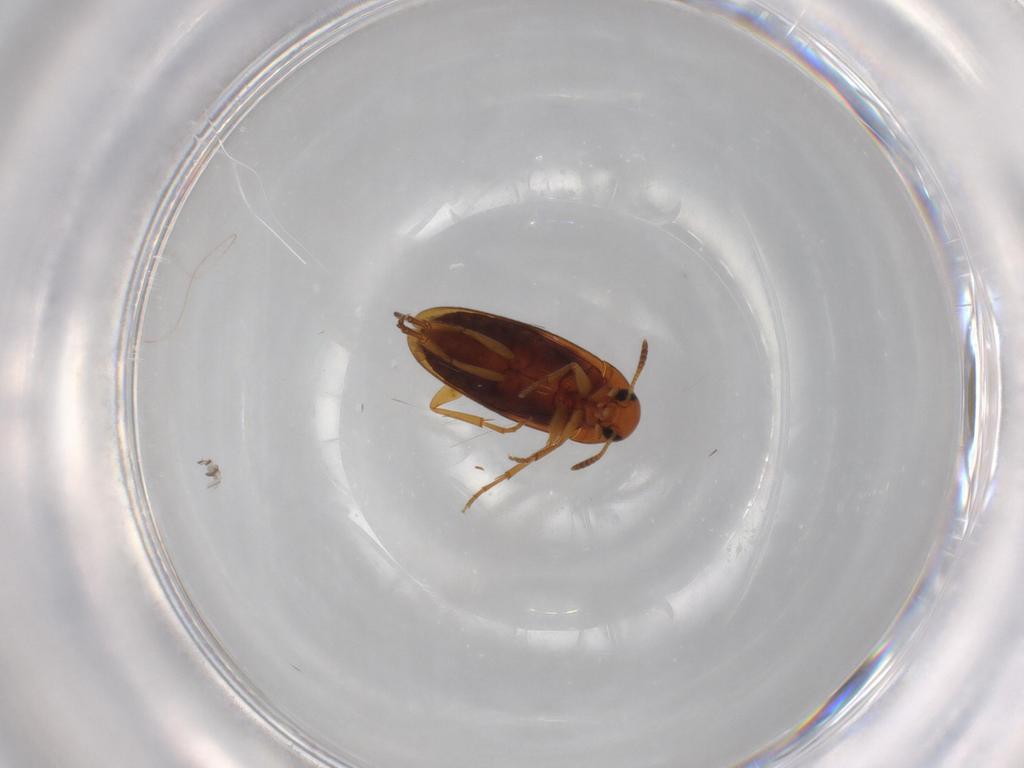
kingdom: Animalia
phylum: Arthropoda
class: Insecta
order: Coleoptera
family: Scraptiidae
